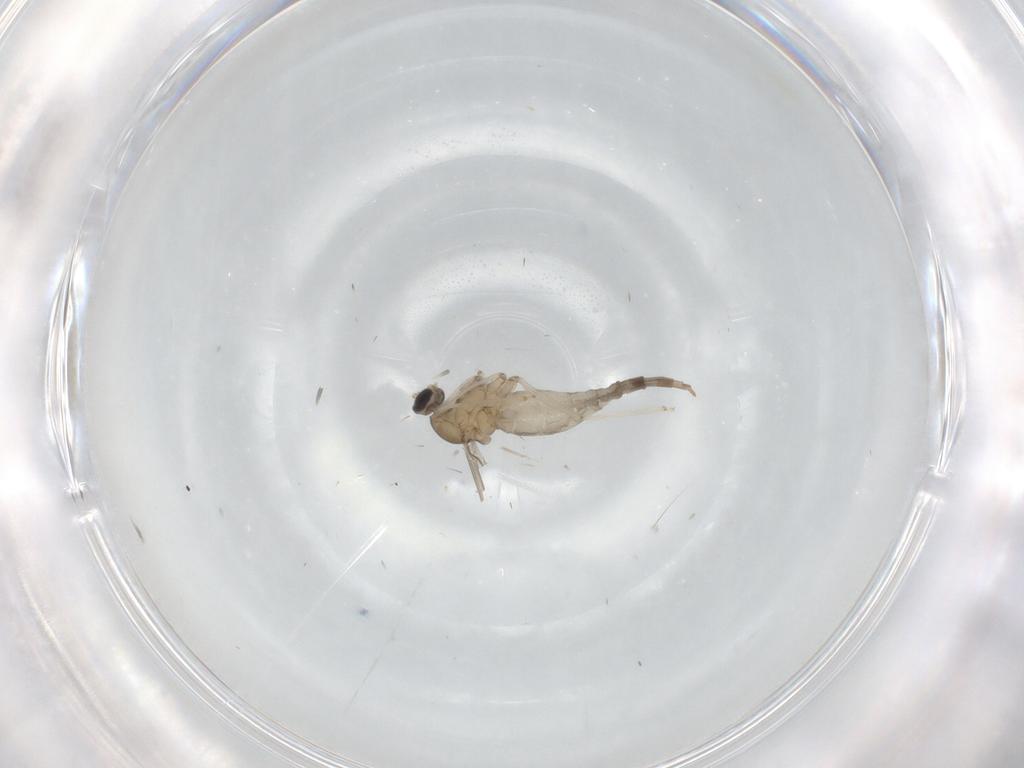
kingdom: Animalia
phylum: Arthropoda
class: Insecta
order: Diptera
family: Cecidomyiidae
